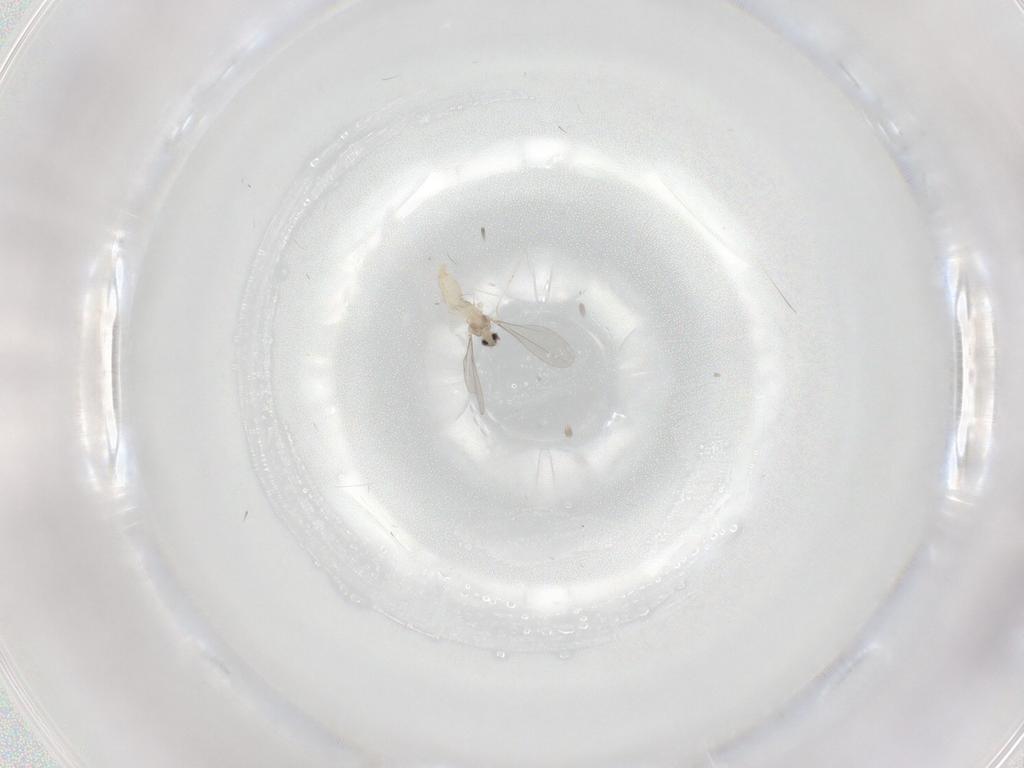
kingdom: Animalia
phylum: Arthropoda
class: Insecta
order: Diptera
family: Cecidomyiidae
